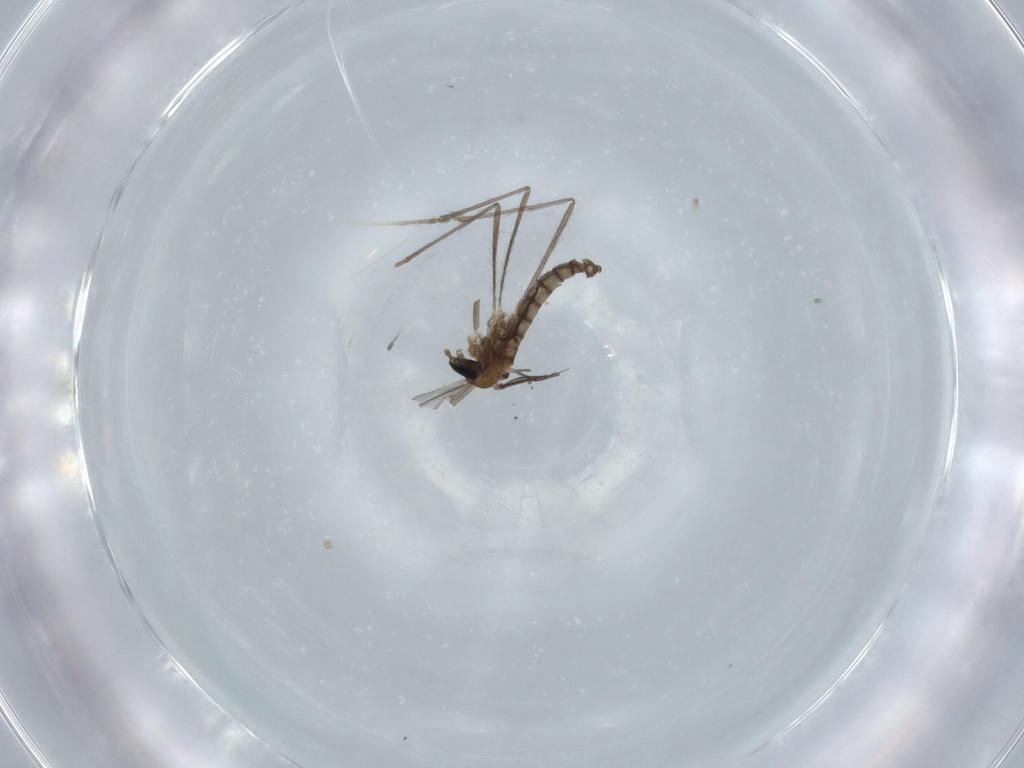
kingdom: Animalia
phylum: Arthropoda
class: Insecta
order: Diptera
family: Cecidomyiidae
